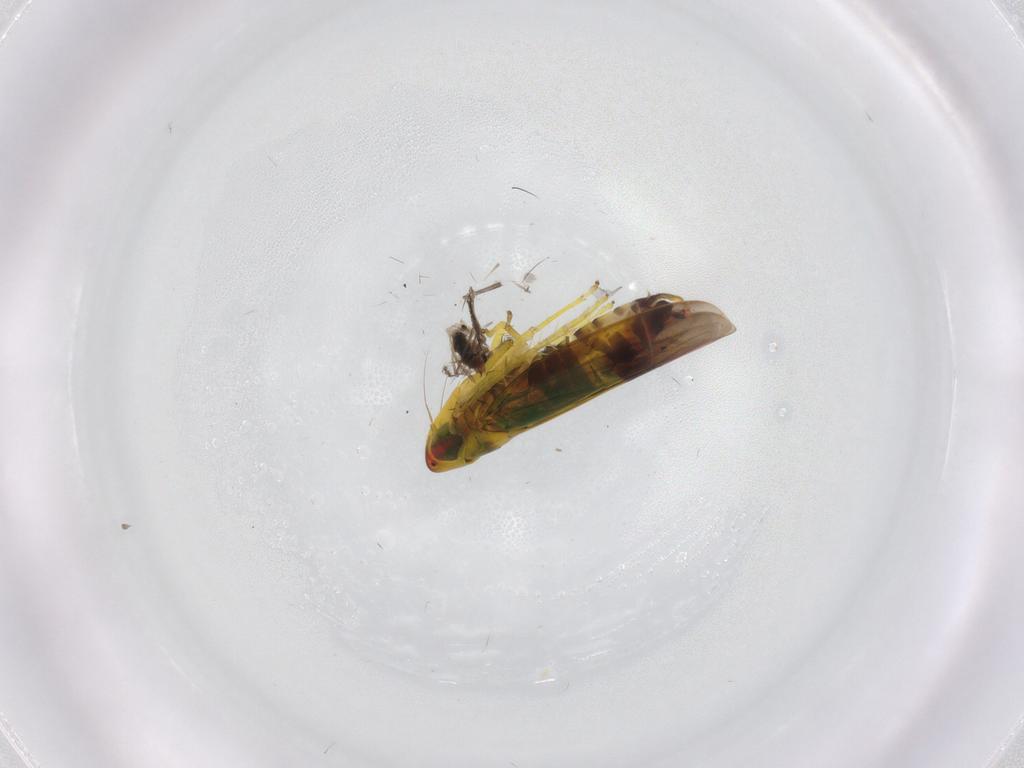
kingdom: Animalia
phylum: Arthropoda
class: Insecta
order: Hemiptera
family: Cicadellidae
